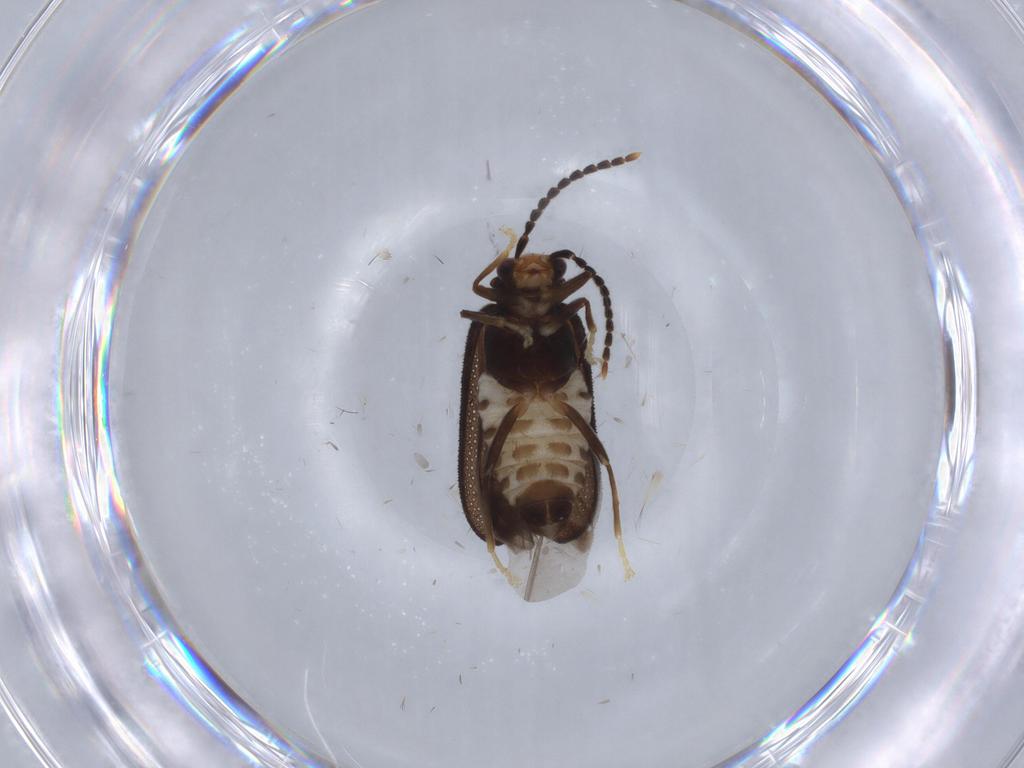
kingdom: Animalia
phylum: Arthropoda
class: Insecta
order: Coleoptera
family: Cantharidae
